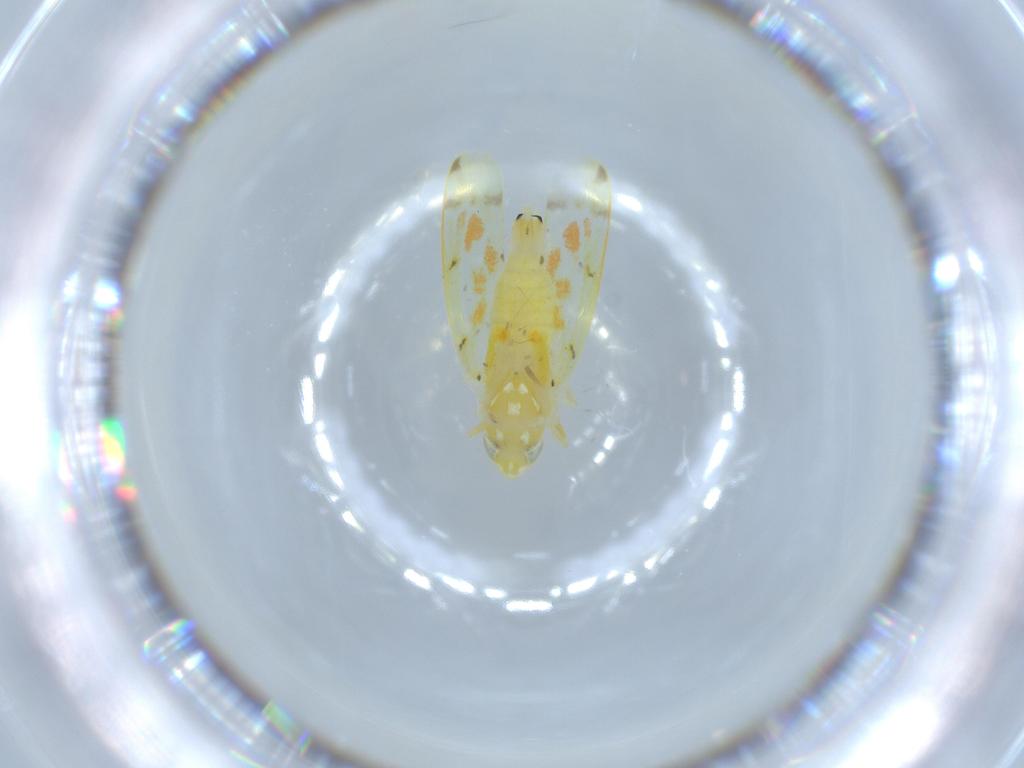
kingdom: Animalia
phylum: Arthropoda
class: Insecta
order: Hemiptera
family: Cicadellidae
